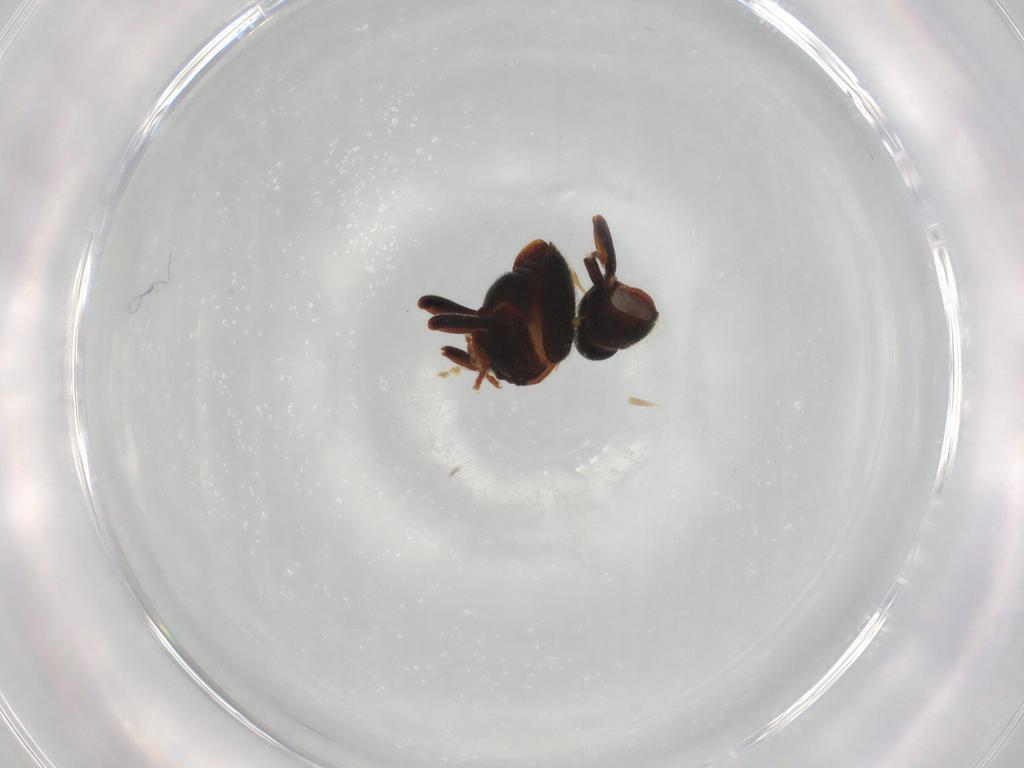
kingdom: Animalia
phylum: Arthropoda
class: Insecta
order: Coleoptera
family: Curculionidae
